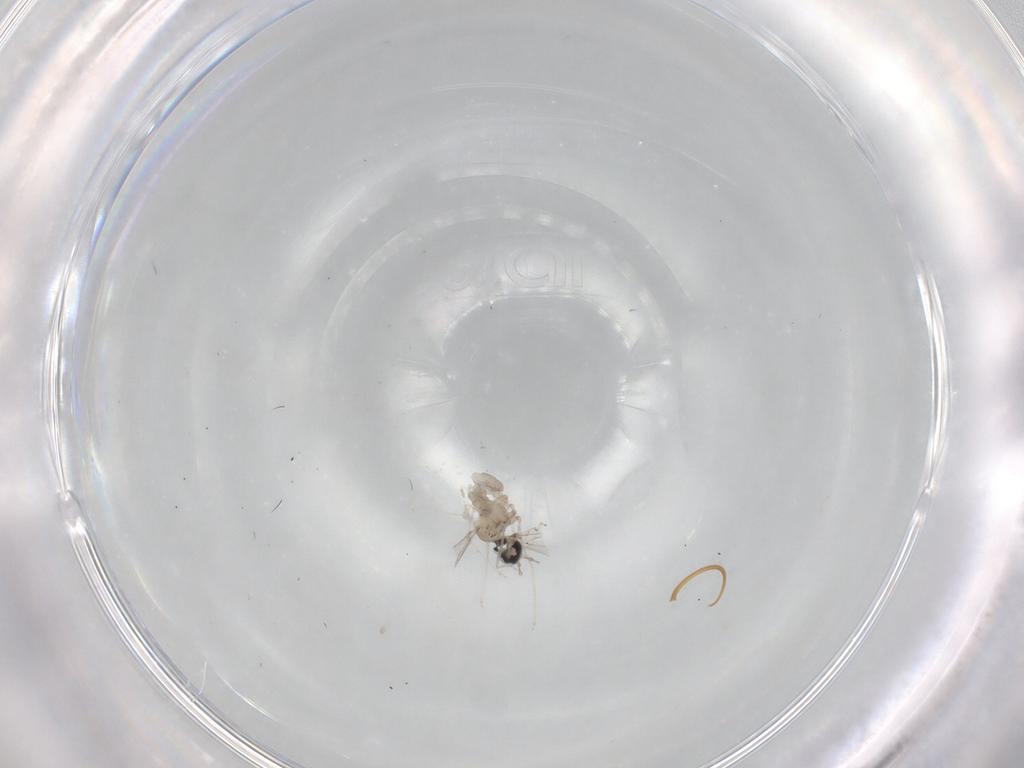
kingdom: Animalia
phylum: Arthropoda
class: Insecta
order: Diptera
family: Cecidomyiidae
